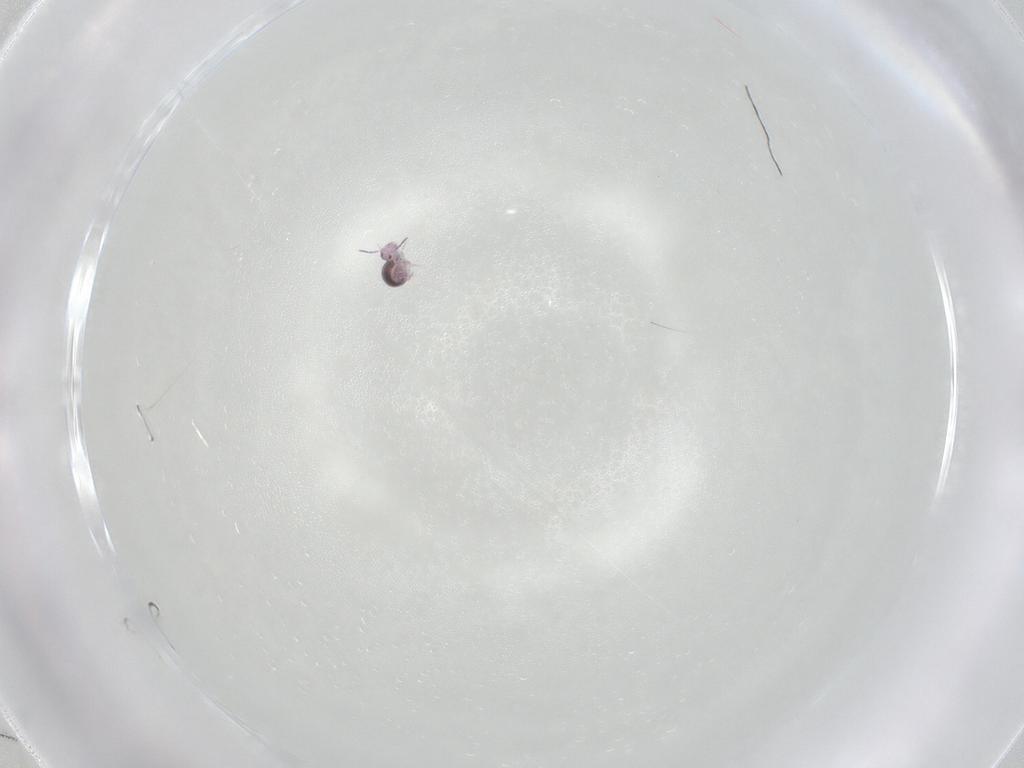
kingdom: Animalia
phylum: Arthropoda
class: Collembola
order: Symphypleona
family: Sminthurididae
